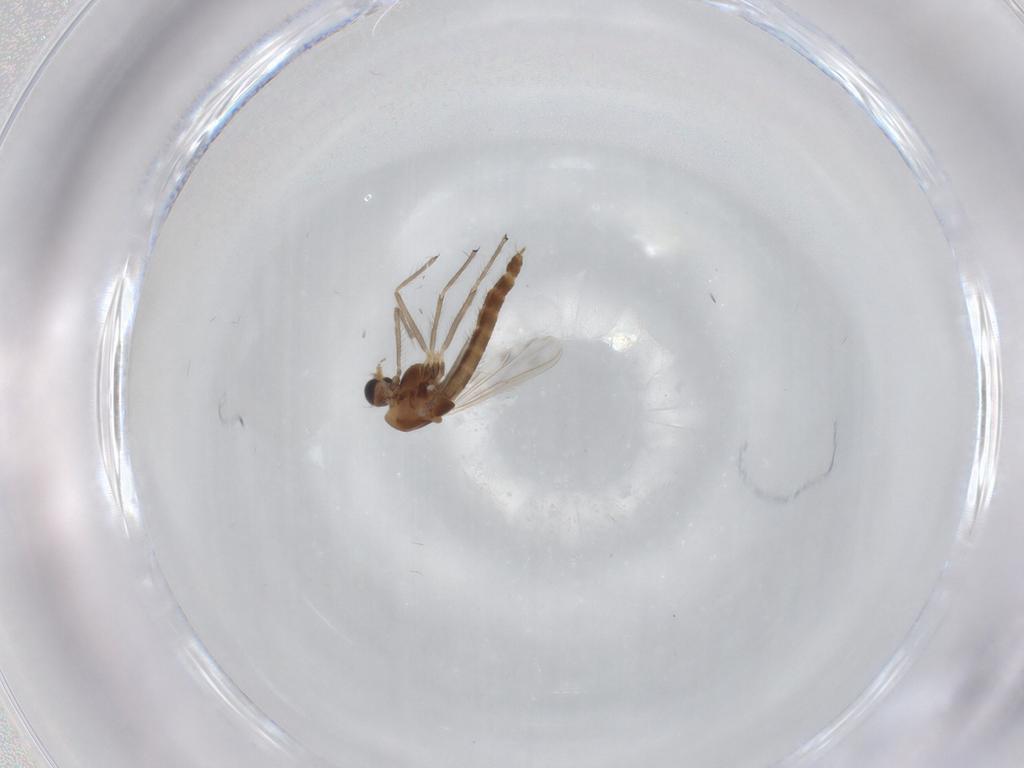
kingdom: Animalia
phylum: Arthropoda
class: Insecta
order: Diptera
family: Chironomidae
